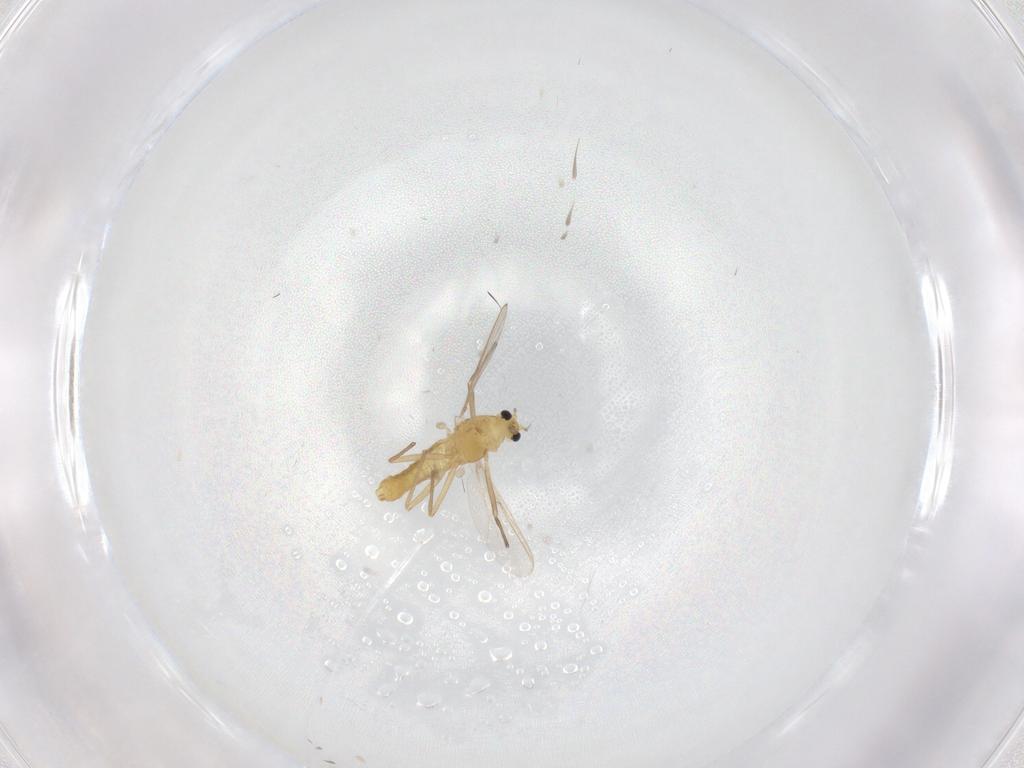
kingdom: Animalia
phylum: Arthropoda
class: Insecta
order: Diptera
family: Chironomidae
